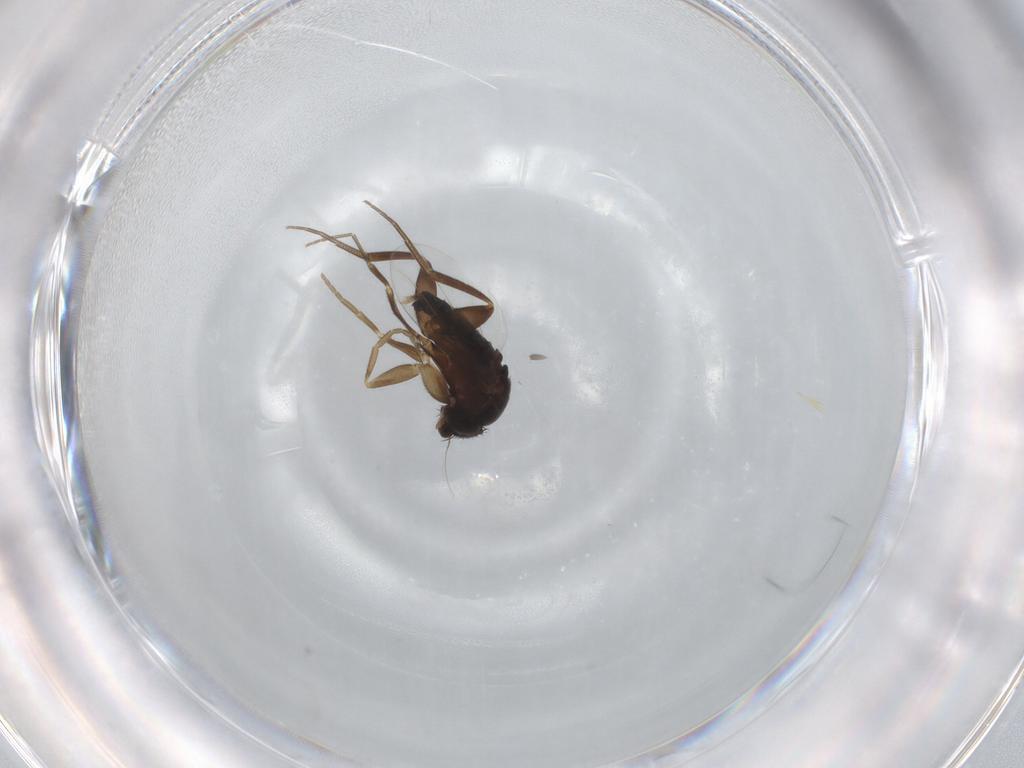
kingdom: Animalia
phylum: Arthropoda
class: Insecta
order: Diptera
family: Phoridae
